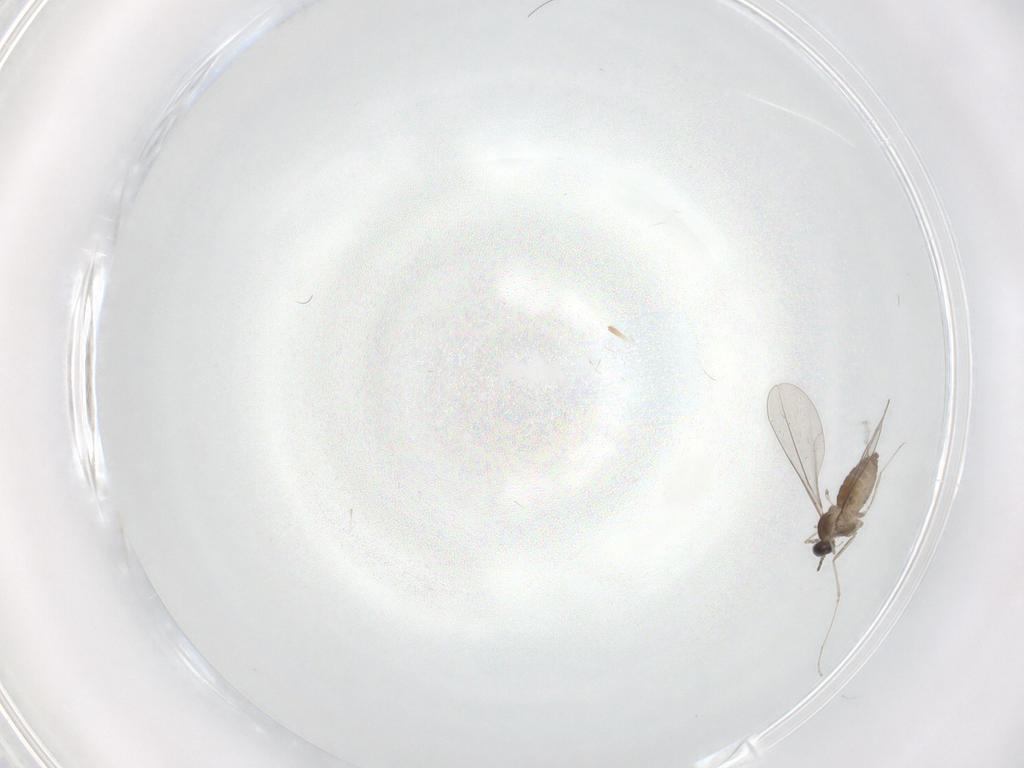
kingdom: Animalia
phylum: Arthropoda
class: Insecta
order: Diptera
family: Cecidomyiidae
